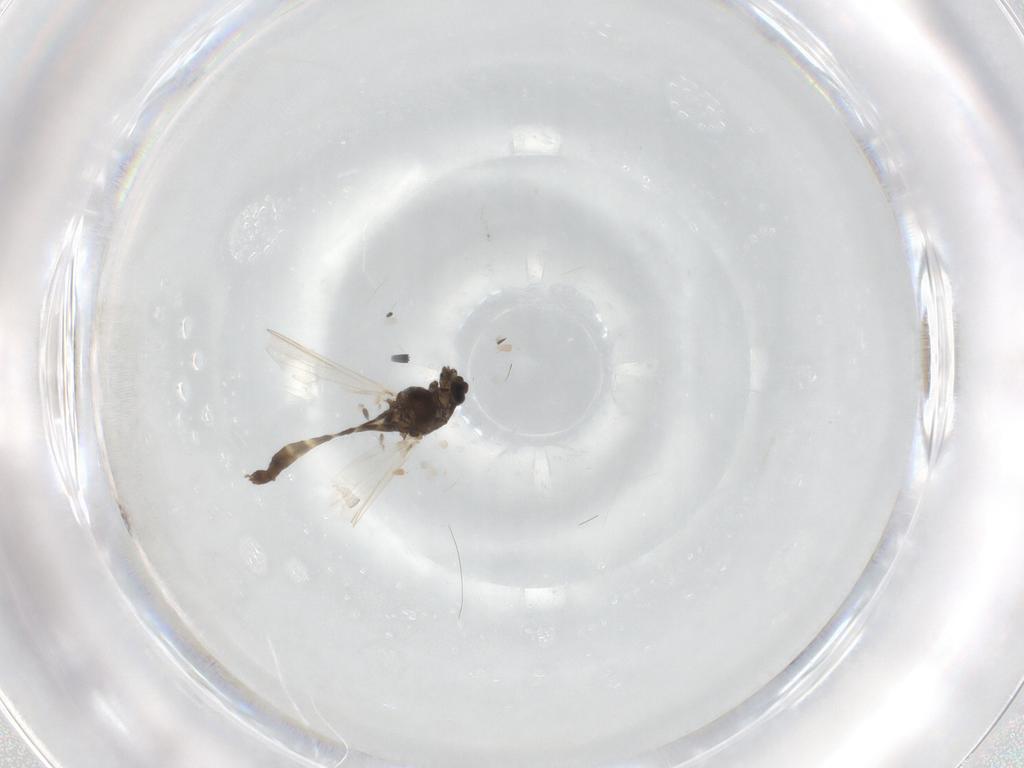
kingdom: Animalia
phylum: Arthropoda
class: Insecta
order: Diptera
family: Chironomidae
